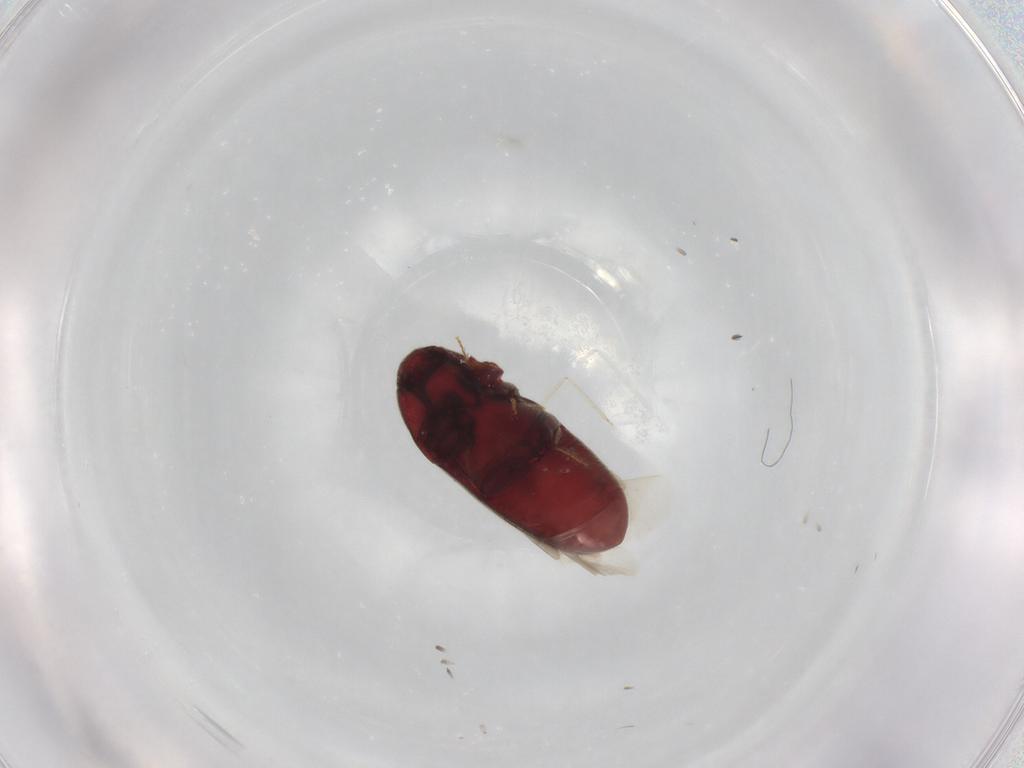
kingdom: Animalia
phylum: Arthropoda
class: Insecta
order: Coleoptera
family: Throscidae
